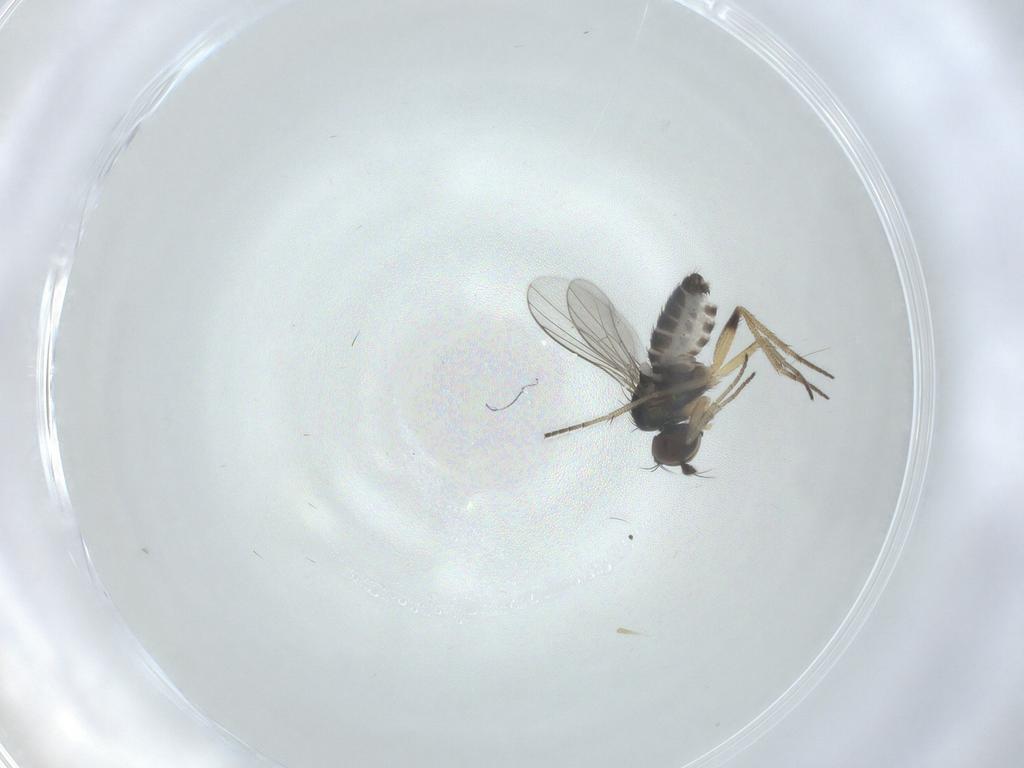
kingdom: Animalia
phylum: Arthropoda
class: Insecta
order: Diptera
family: Dolichopodidae
